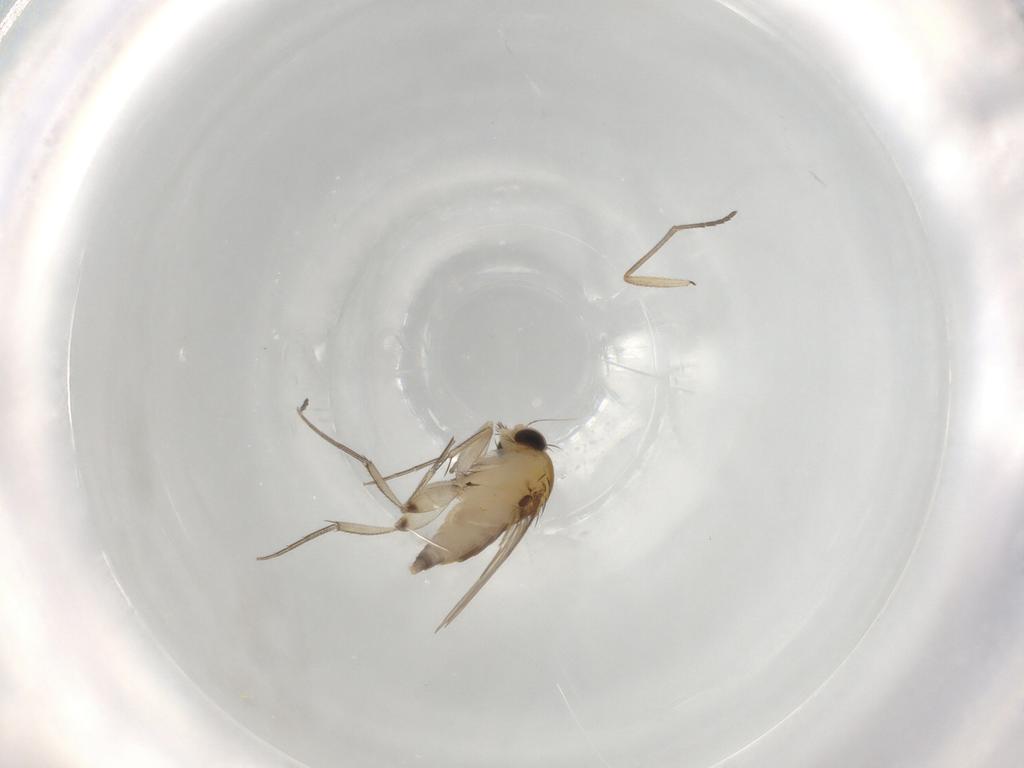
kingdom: Animalia
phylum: Arthropoda
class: Insecta
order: Diptera
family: Phoridae
